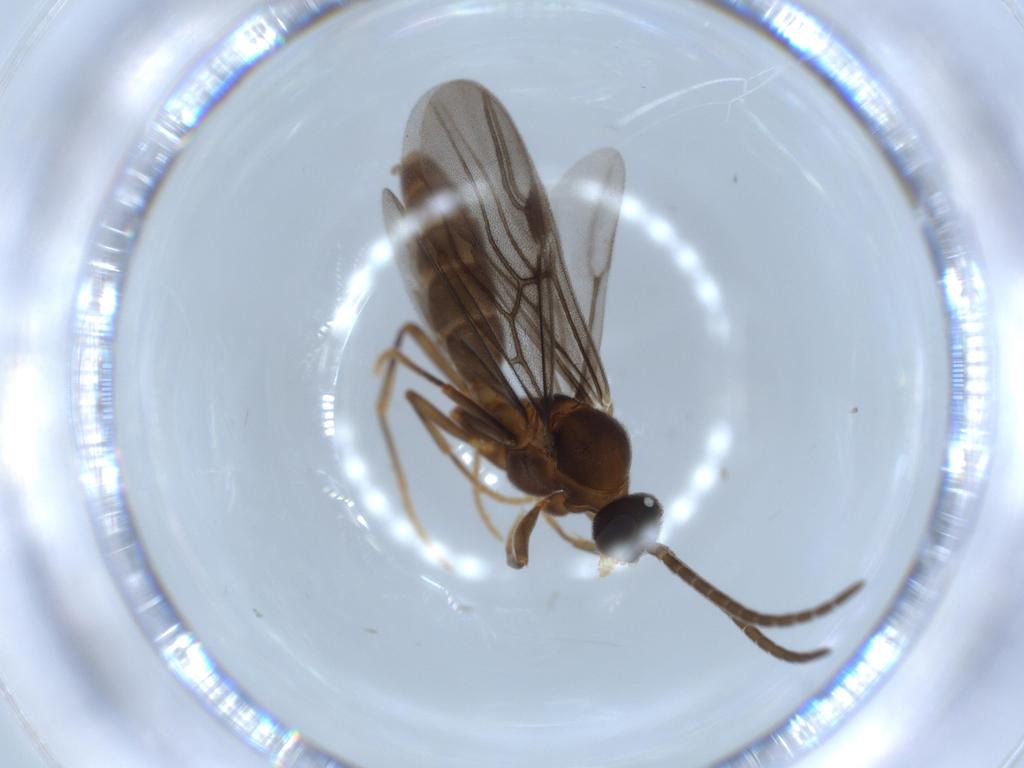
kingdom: Animalia
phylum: Arthropoda
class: Insecta
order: Hymenoptera
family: Formicidae
